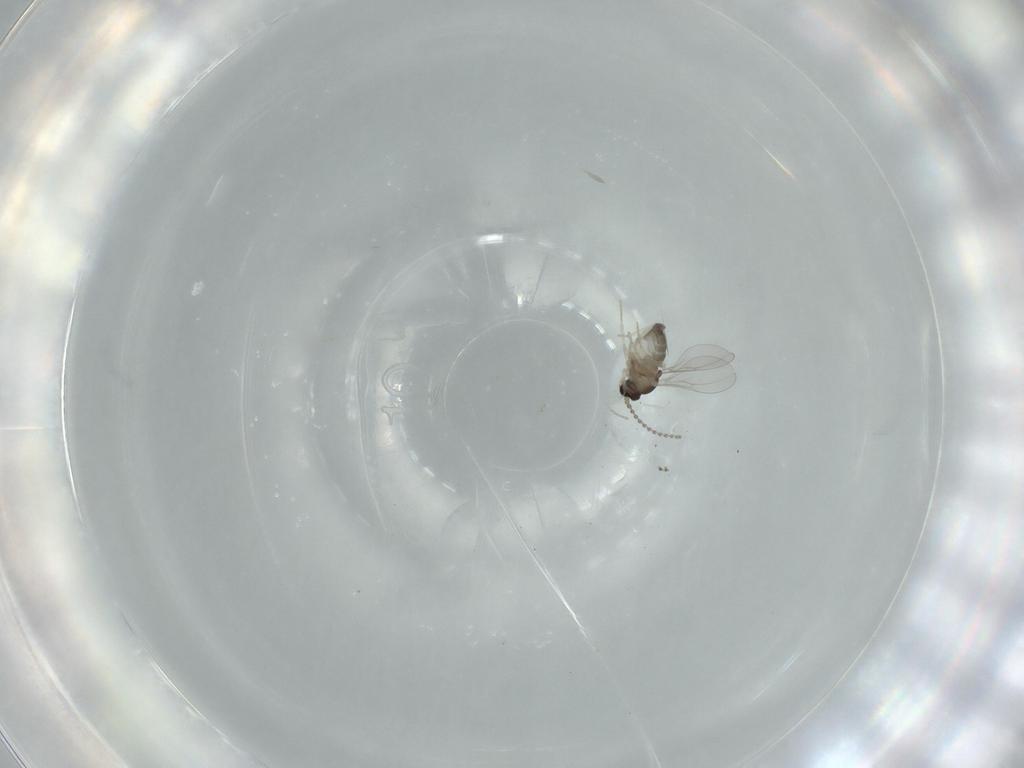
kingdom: Animalia
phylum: Arthropoda
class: Insecta
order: Diptera
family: Cecidomyiidae
